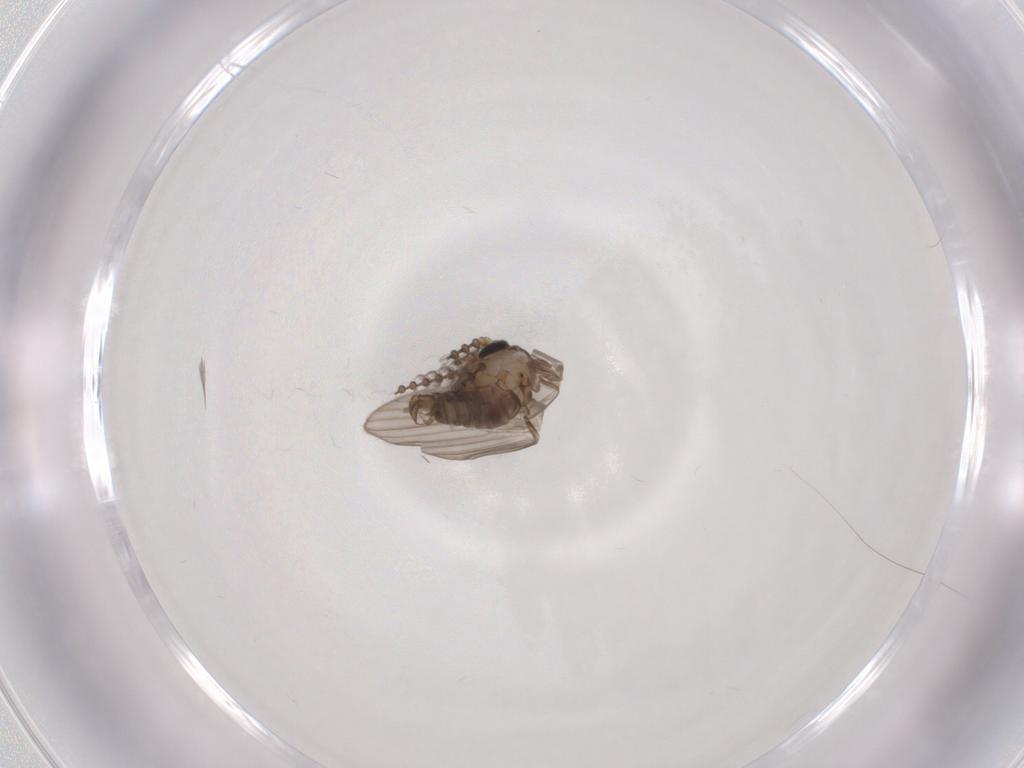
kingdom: Animalia
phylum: Arthropoda
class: Insecta
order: Diptera
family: Psychodidae
